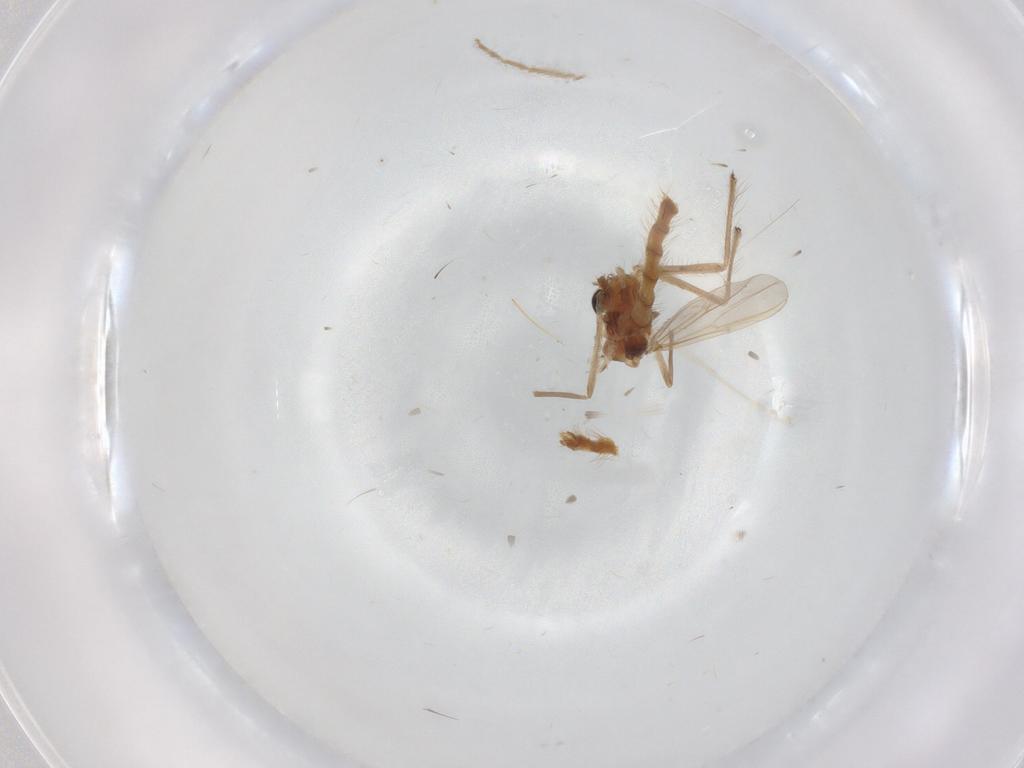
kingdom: Animalia
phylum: Arthropoda
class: Insecta
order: Diptera
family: Chironomidae
